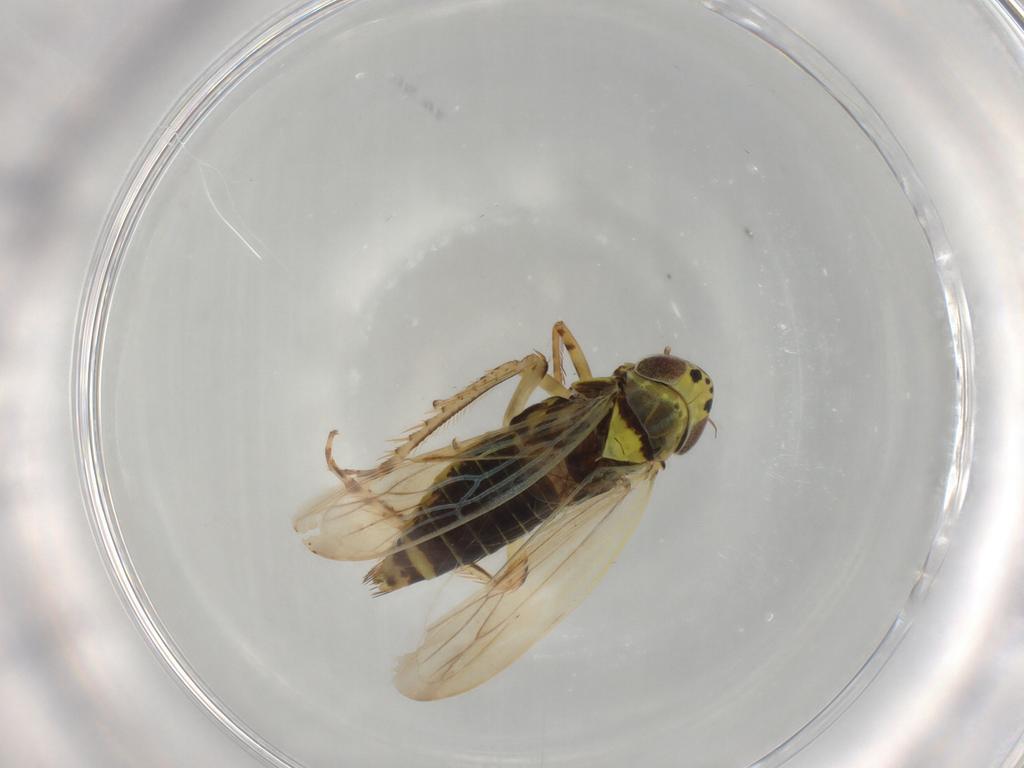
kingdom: Animalia
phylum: Arthropoda
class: Insecta
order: Hemiptera
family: Cicadellidae
